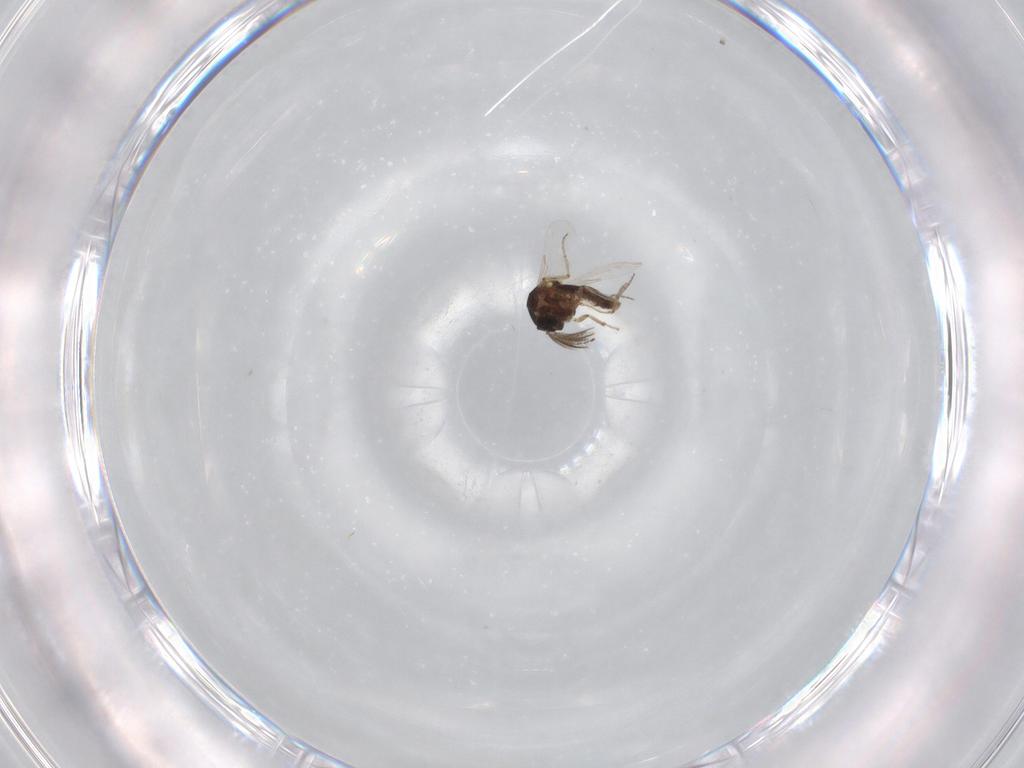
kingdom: Animalia
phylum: Arthropoda
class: Insecta
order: Diptera
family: Ceratopogonidae
